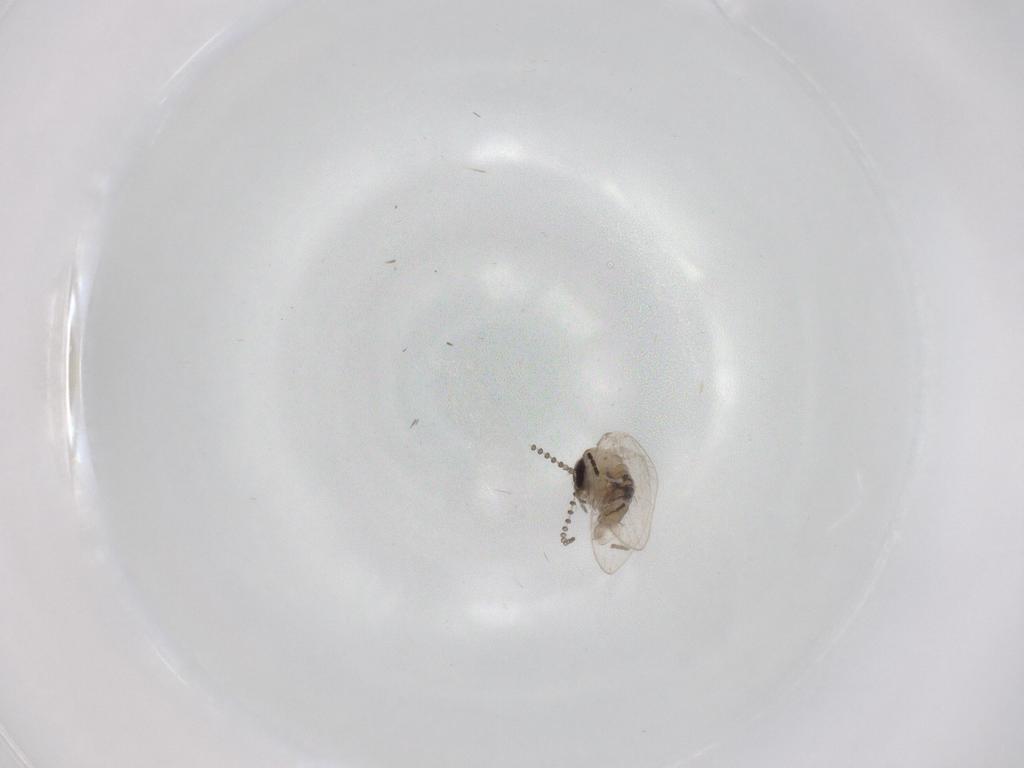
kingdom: Animalia
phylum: Arthropoda
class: Insecta
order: Diptera
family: Psychodidae
